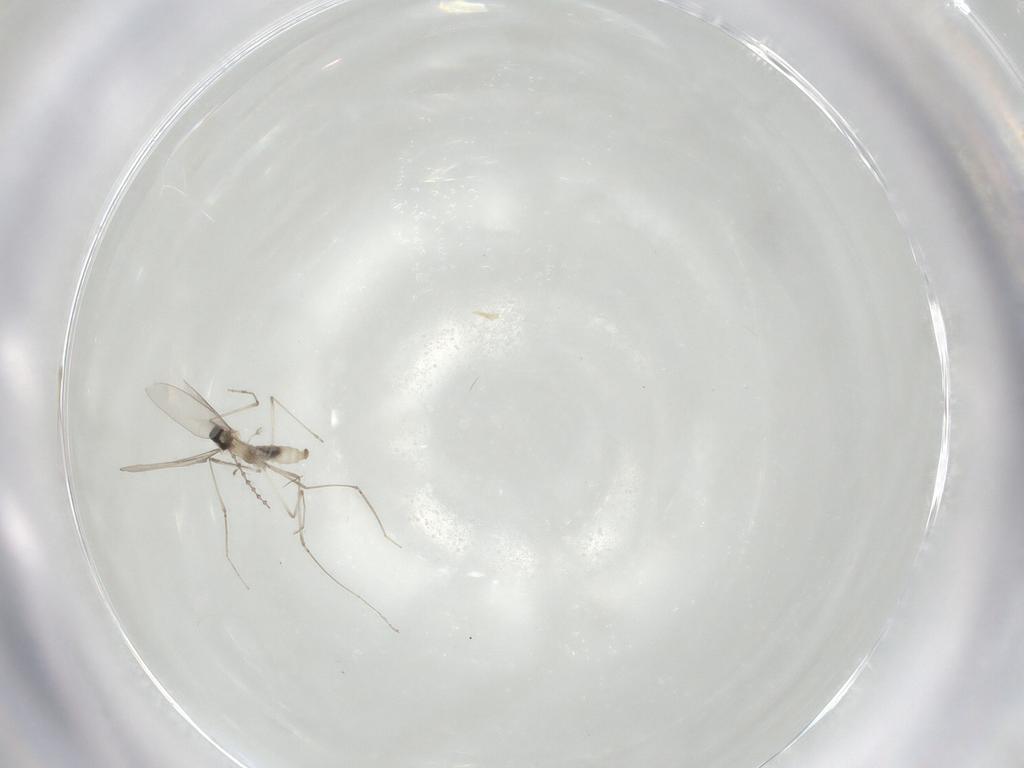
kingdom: Animalia
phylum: Arthropoda
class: Insecta
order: Diptera
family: Cecidomyiidae
